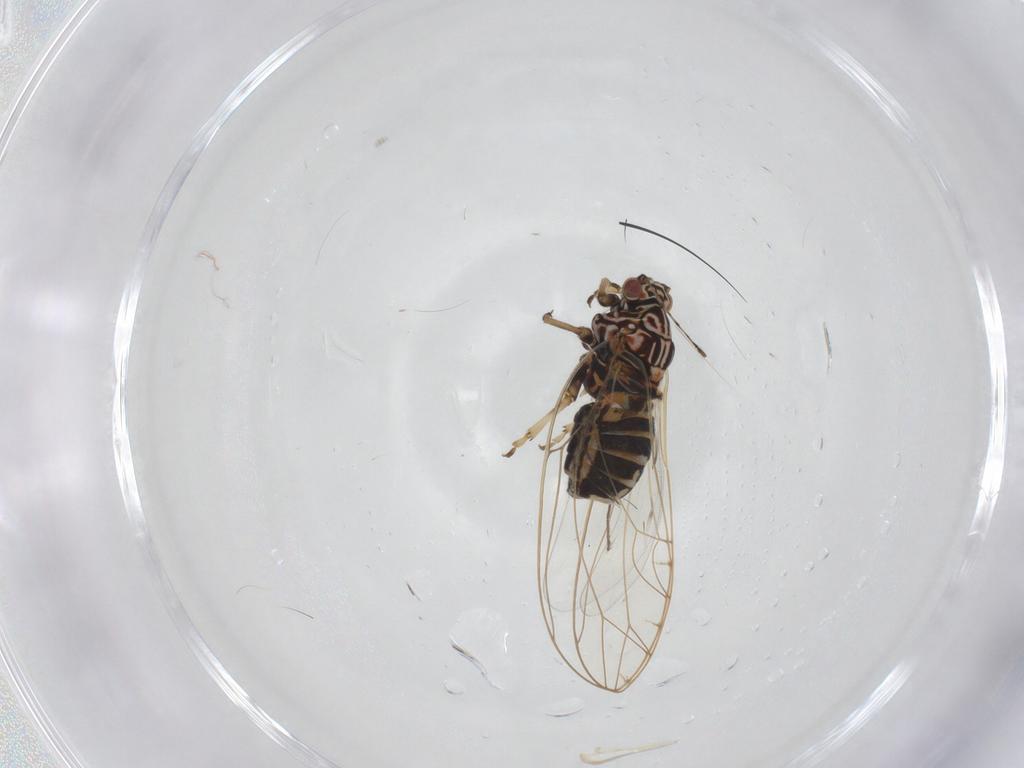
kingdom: Animalia
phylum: Arthropoda
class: Insecta
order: Hemiptera
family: Triozidae
